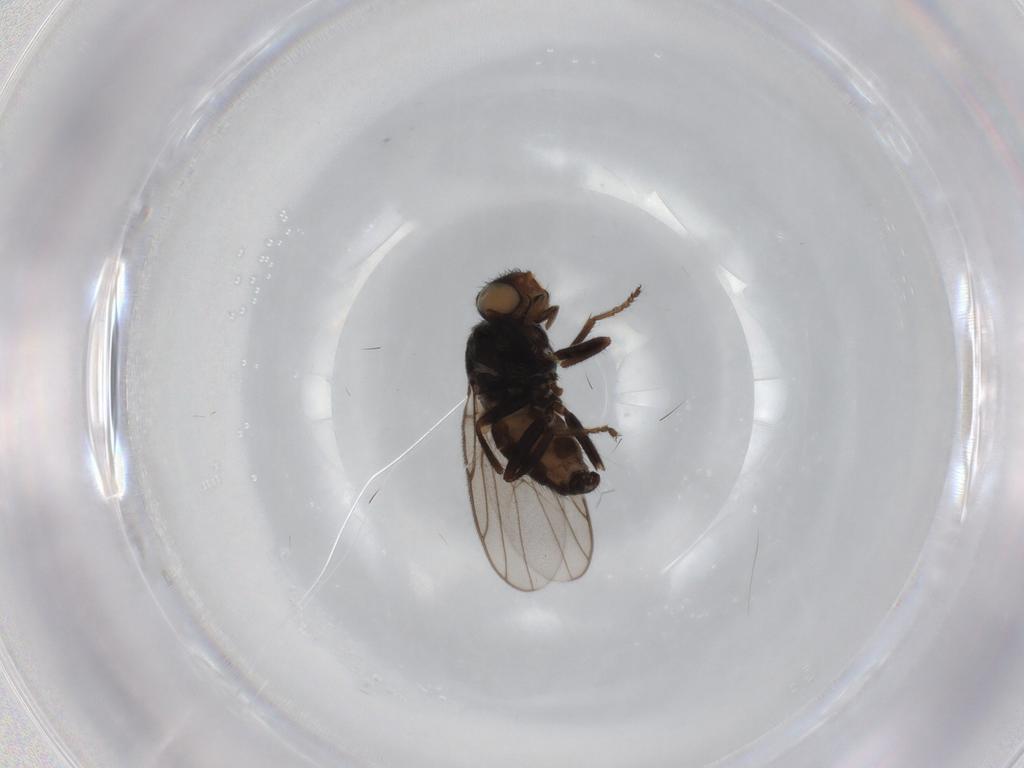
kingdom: Animalia
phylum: Arthropoda
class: Insecta
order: Diptera
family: Chloropidae
